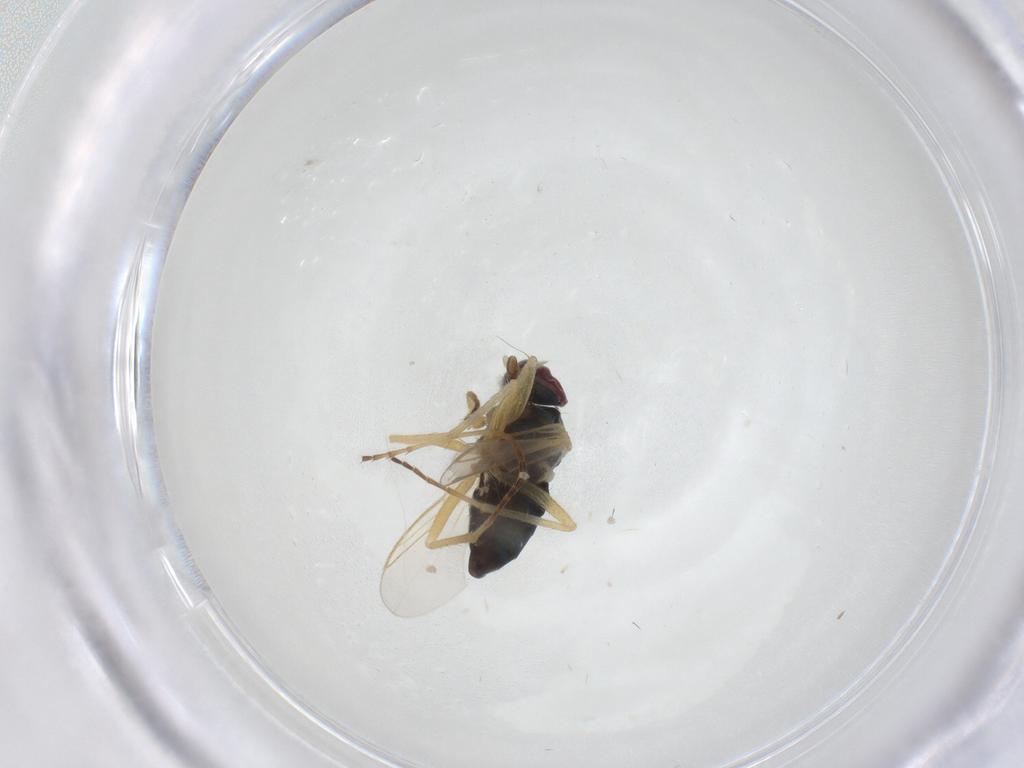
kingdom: Animalia
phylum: Arthropoda
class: Insecta
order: Diptera
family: Dolichopodidae
